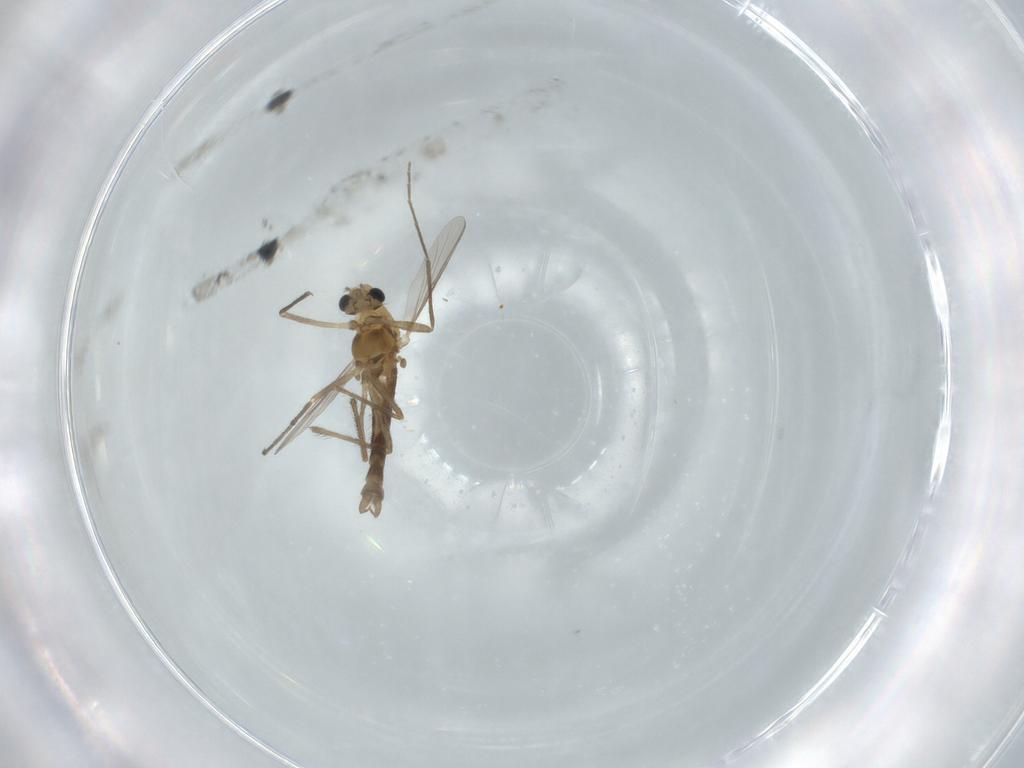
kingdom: Animalia
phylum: Arthropoda
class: Insecta
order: Diptera
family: Chironomidae
